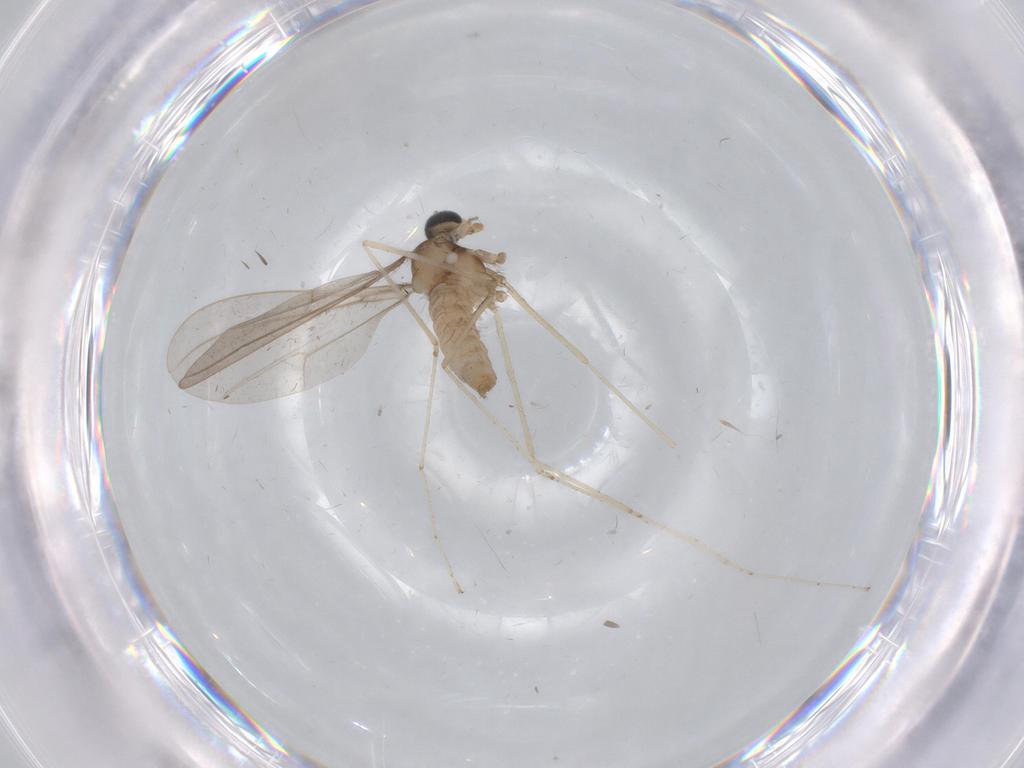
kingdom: Animalia
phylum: Arthropoda
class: Insecta
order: Diptera
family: Cecidomyiidae
